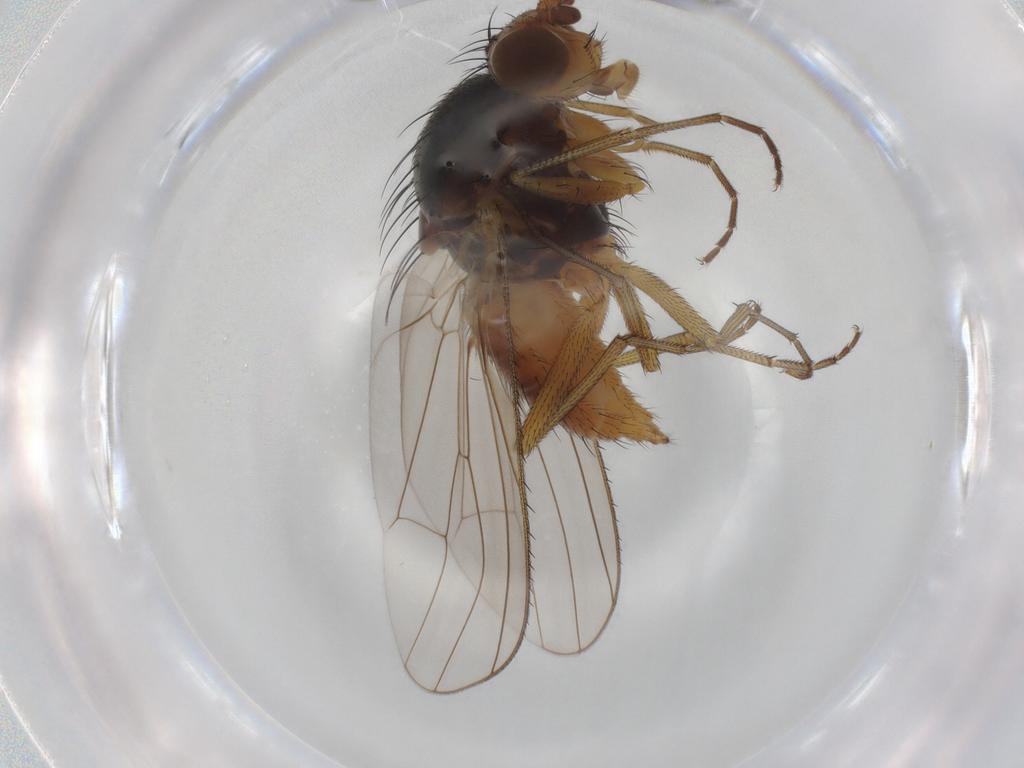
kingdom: Animalia
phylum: Arthropoda
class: Insecta
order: Diptera
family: Heleomyzidae
